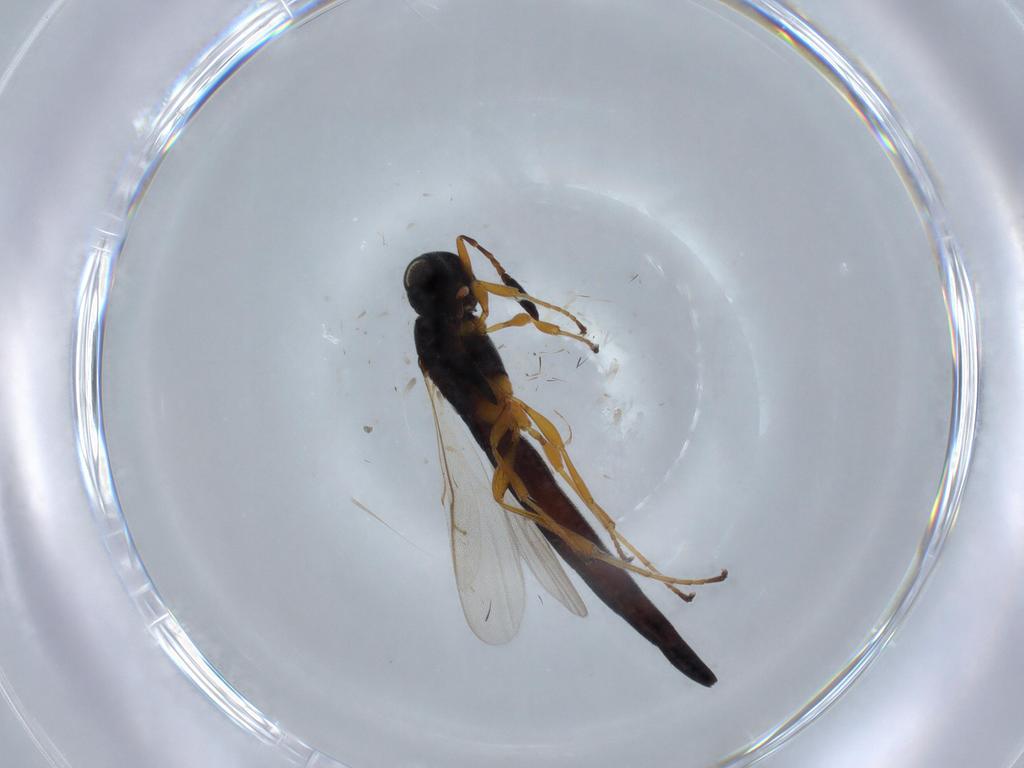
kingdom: Animalia
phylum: Arthropoda
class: Insecta
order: Hymenoptera
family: Scelionidae
